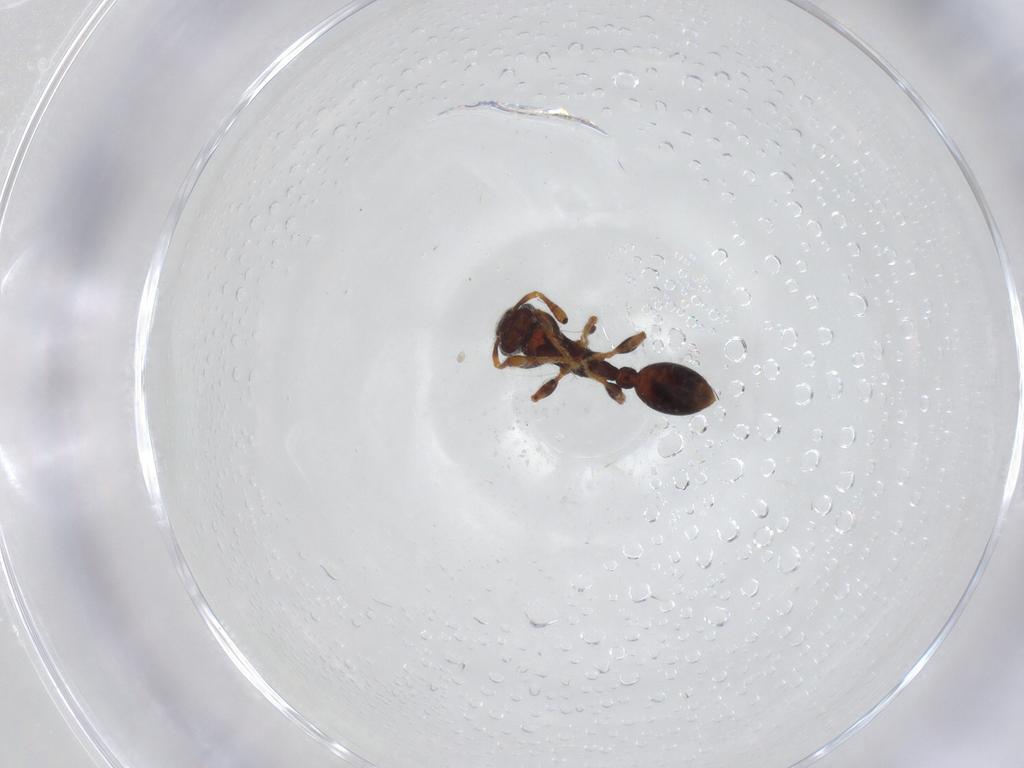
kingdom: Animalia
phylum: Arthropoda
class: Insecta
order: Hymenoptera
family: Formicidae
